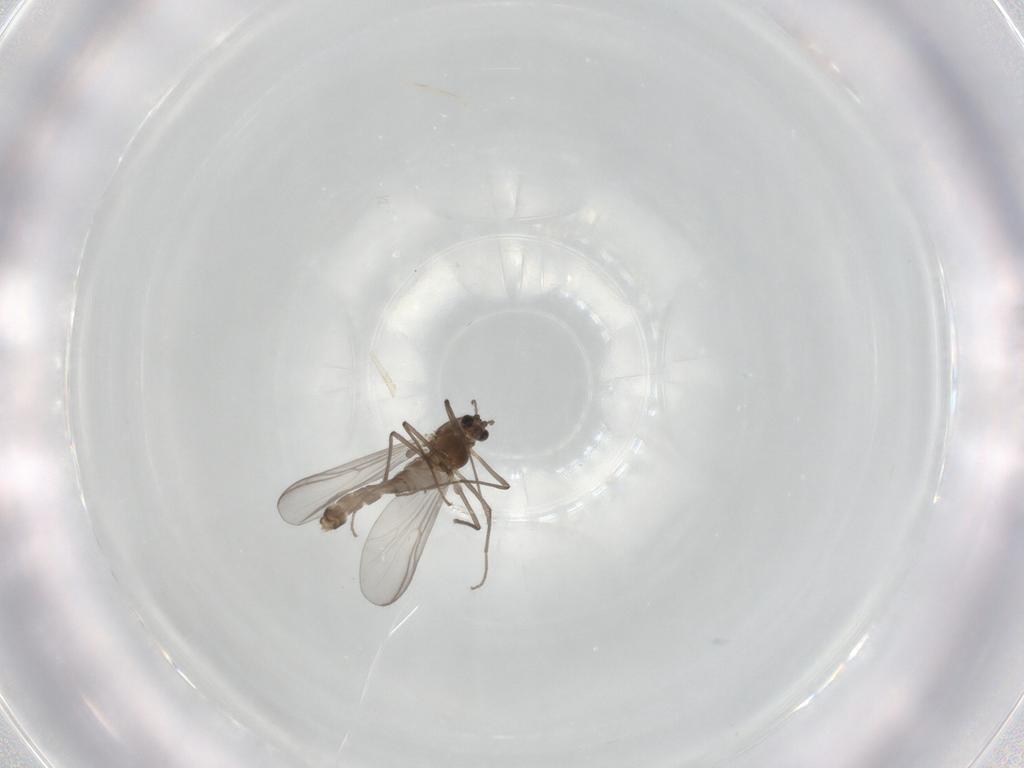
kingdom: Animalia
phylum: Arthropoda
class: Insecta
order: Diptera
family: Chironomidae
